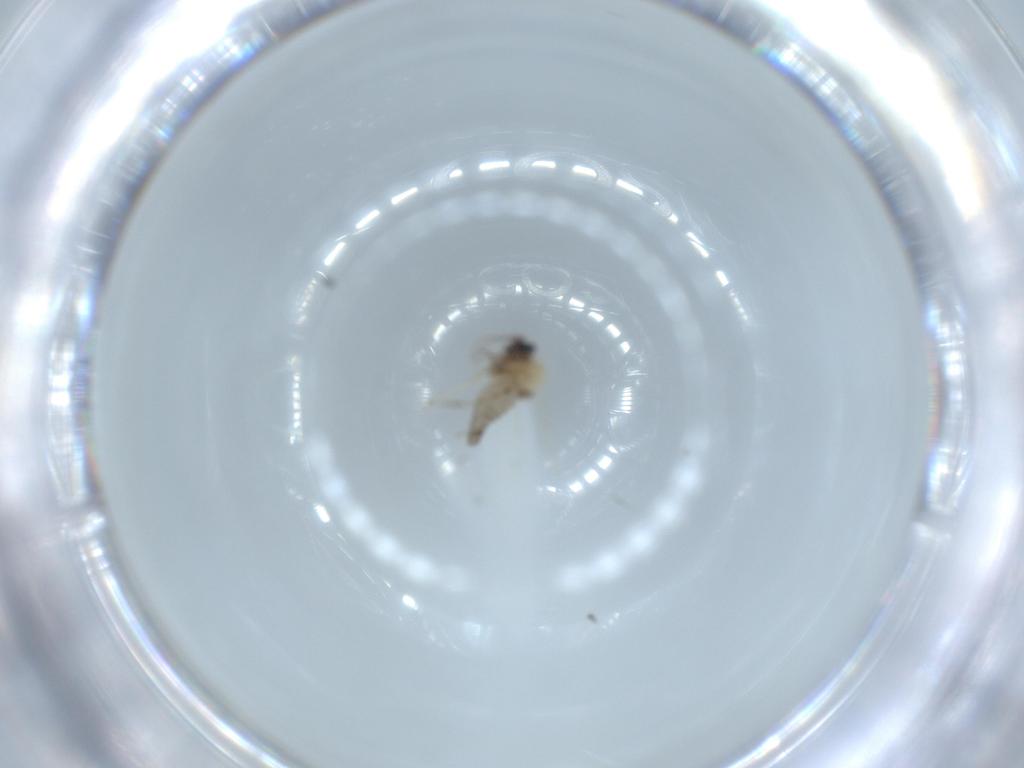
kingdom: Animalia
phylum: Arthropoda
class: Insecta
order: Diptera
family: Ceratopogonidae
